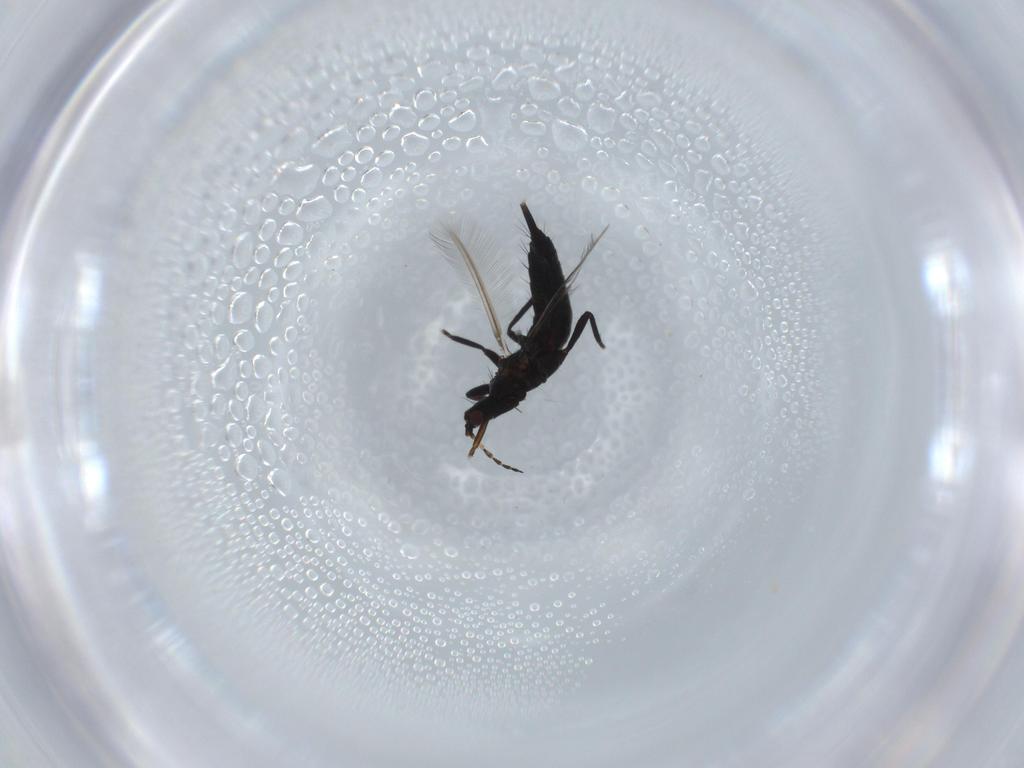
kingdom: Animalia
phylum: Arthropoda
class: Insecta
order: Thysanoptera
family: Phlaeothripidae
